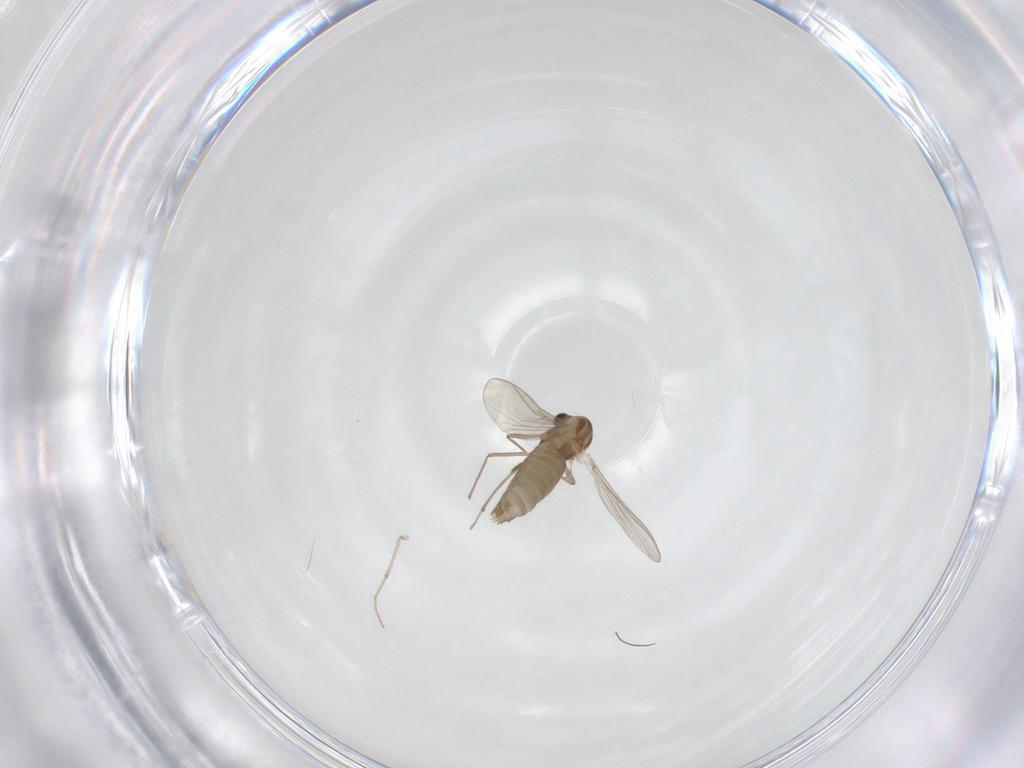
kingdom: Animalia
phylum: Arthropoda
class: Insecta
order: Diptera
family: Chironomidae
